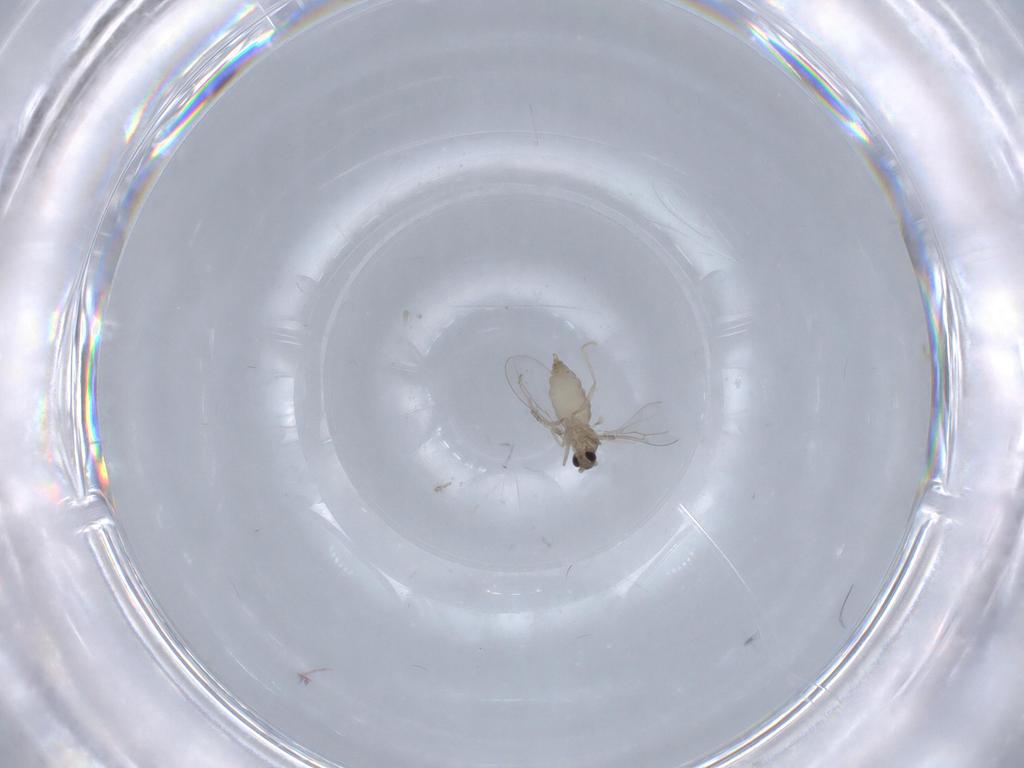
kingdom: Animalia
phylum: Arthropoda
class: Insecta
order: Diptera
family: Cecidomyiidae
